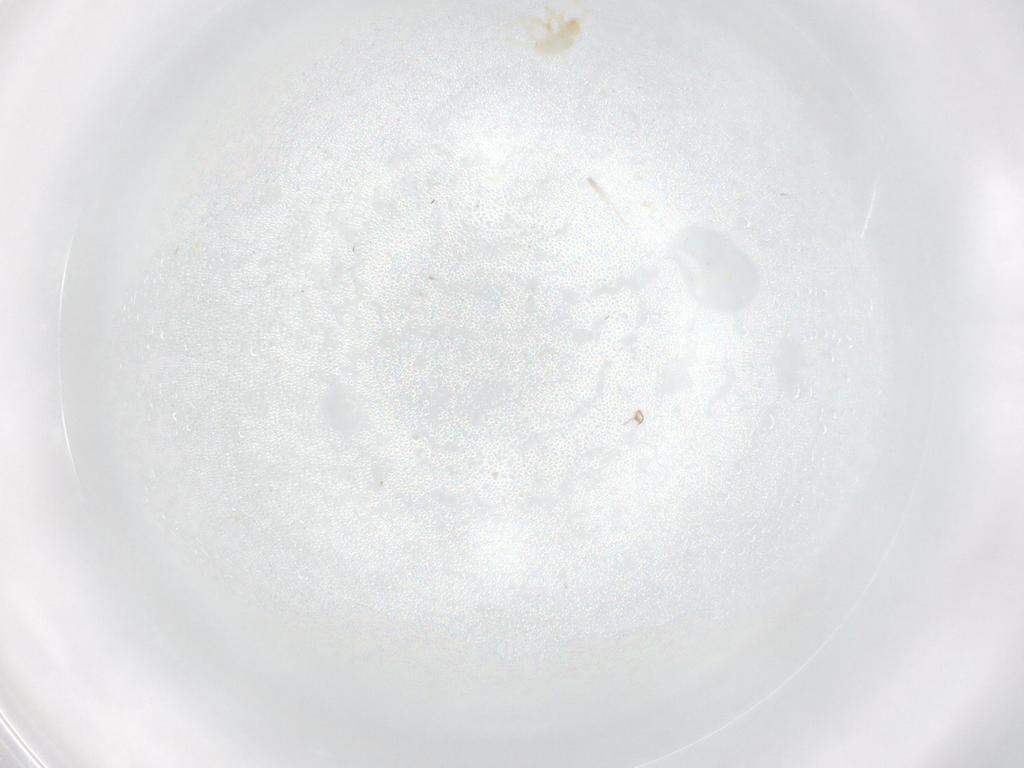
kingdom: Animalia
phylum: Arthropoda
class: Arachnida
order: Trombidiformes
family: Erythraeidae
